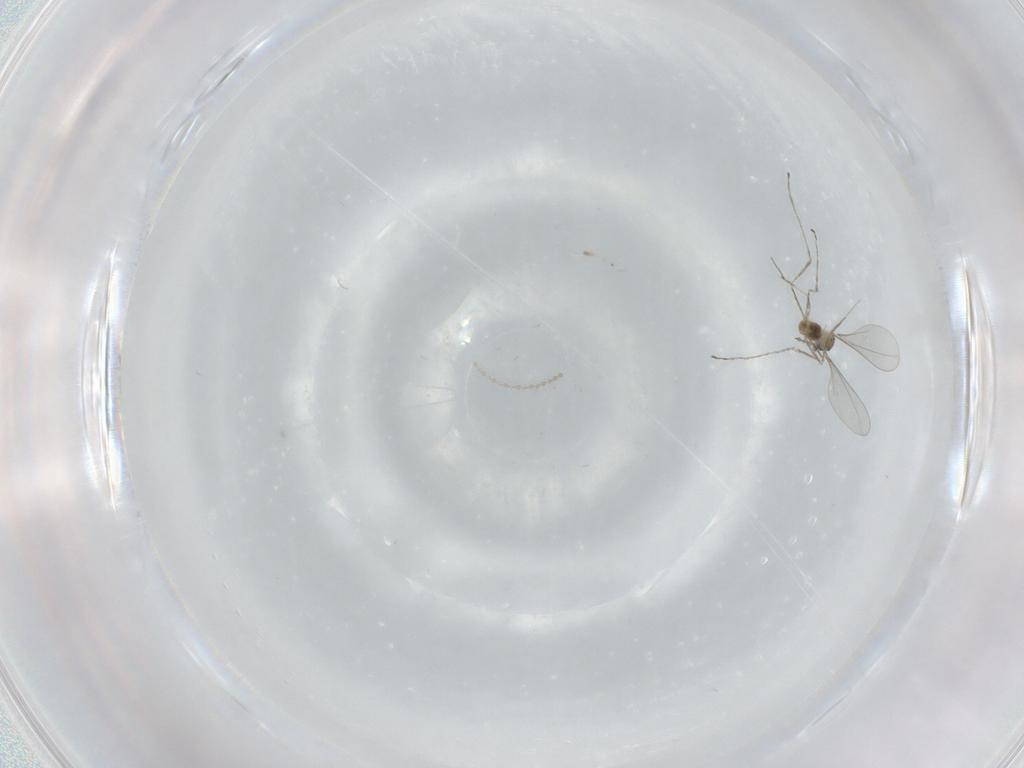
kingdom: Animalia
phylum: Arthropoda
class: Insecta
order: Diptera
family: Cecidomyiidae
